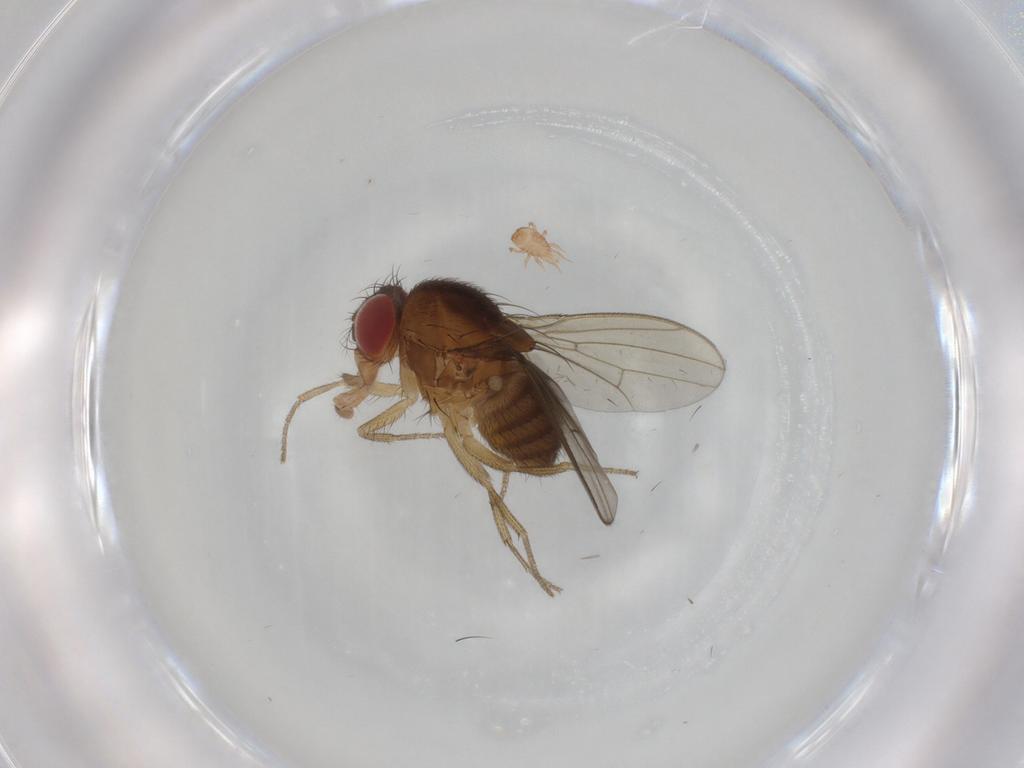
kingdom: Animalia
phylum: Arthropoda
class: Insecta
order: Diptera
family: Drosophilidae
